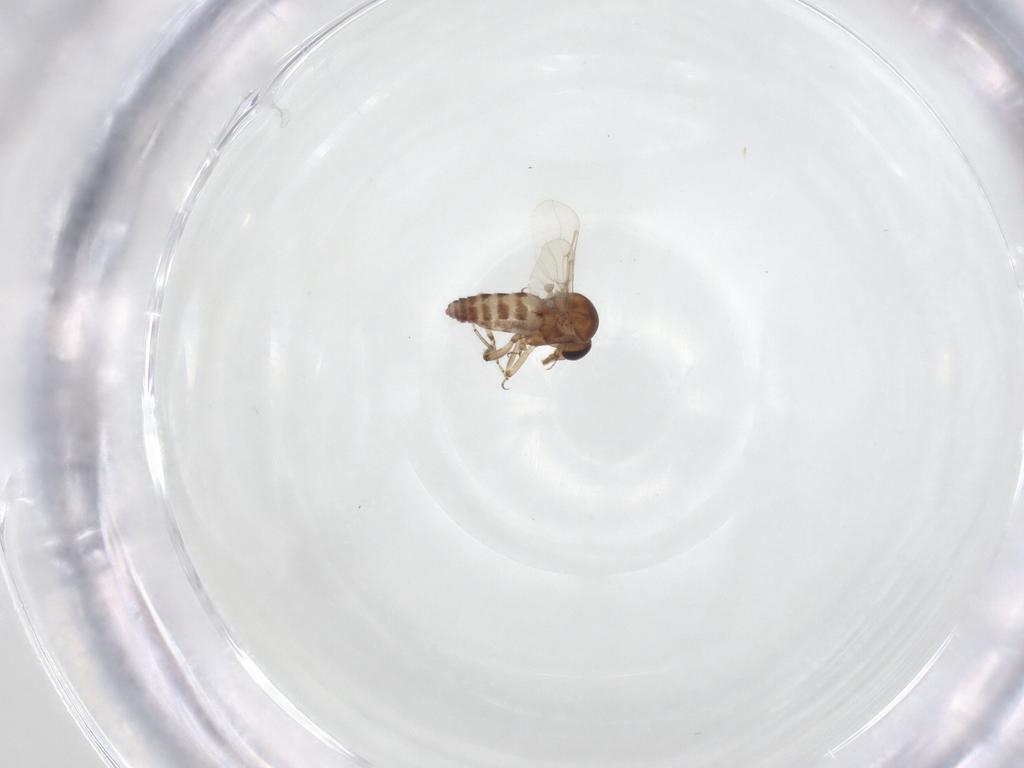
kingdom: Animalia
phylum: Arthropoda
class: Insecta
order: Diptera
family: Ceratopogonidae
